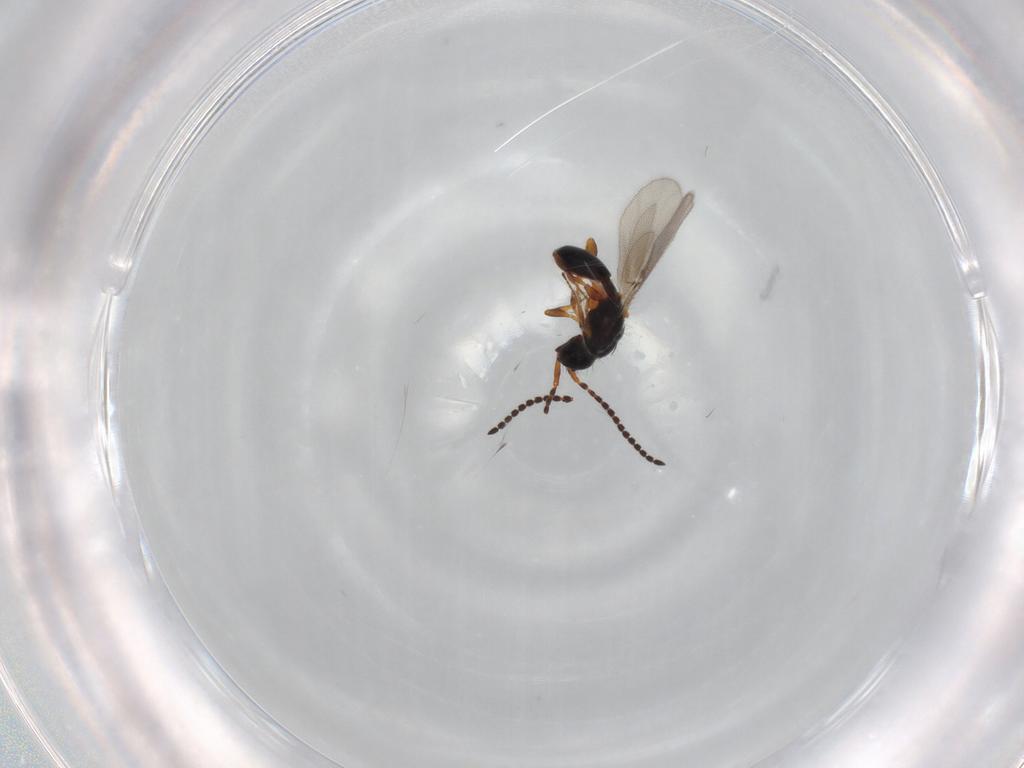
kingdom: Animalia
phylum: Arthropoda
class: Insecta
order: Hymenoptera
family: Diapriidae
